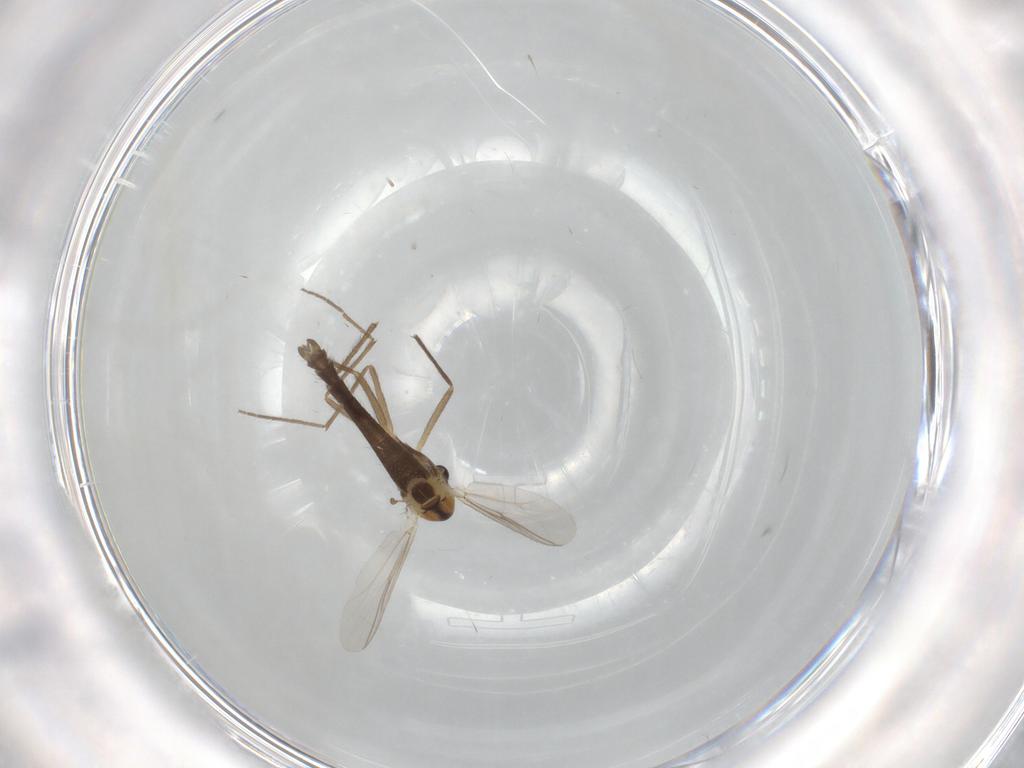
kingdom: Animalia
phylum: Arthropoda
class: Insecta
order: Diptera
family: Chironomidae
